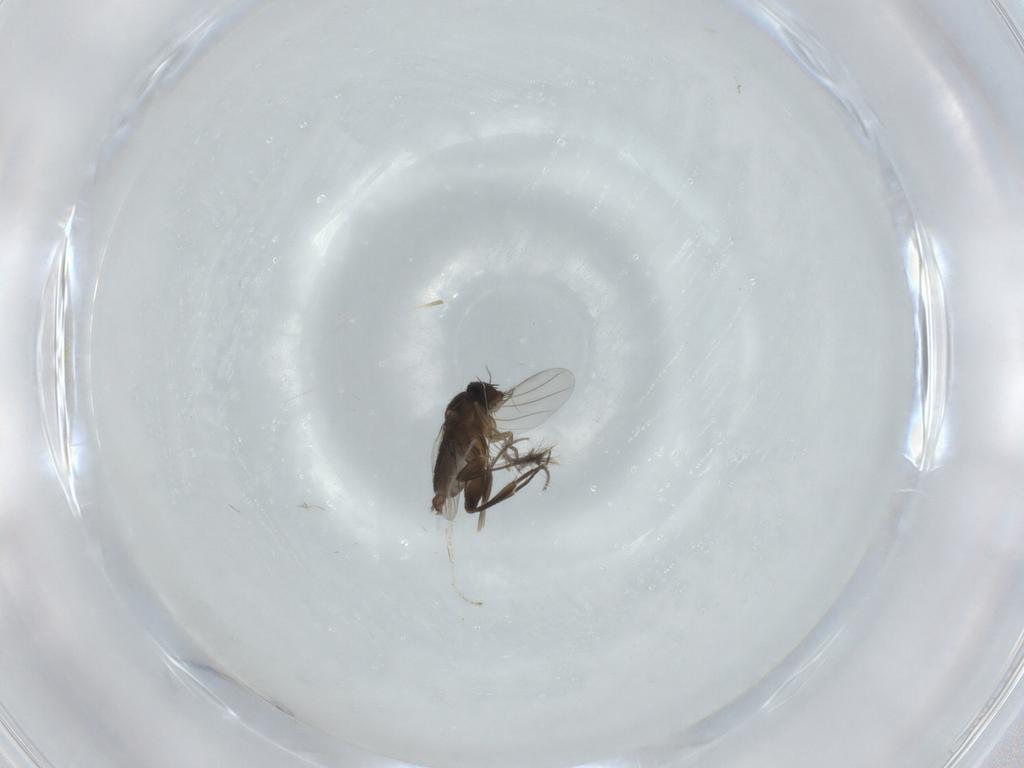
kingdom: Animalia
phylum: Arthropoda
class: Insecta
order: Diptera
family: Phoridae
